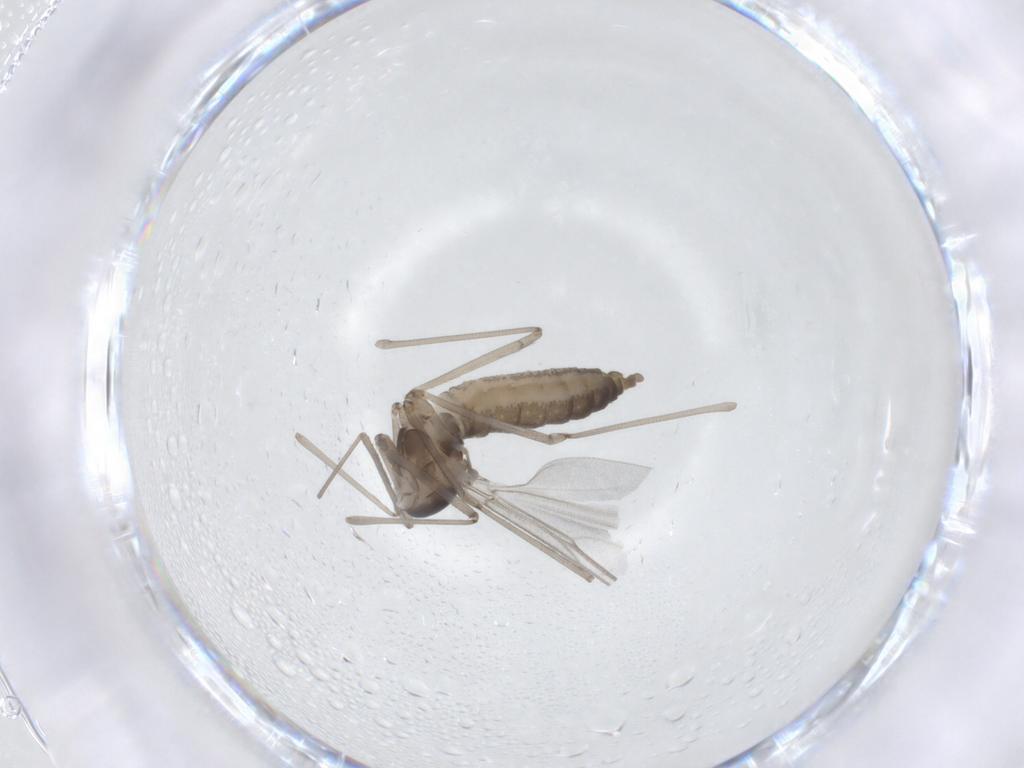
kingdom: Animalia
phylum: Arthropoda
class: Insecta
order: Diptera
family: Cecidomyiidae
